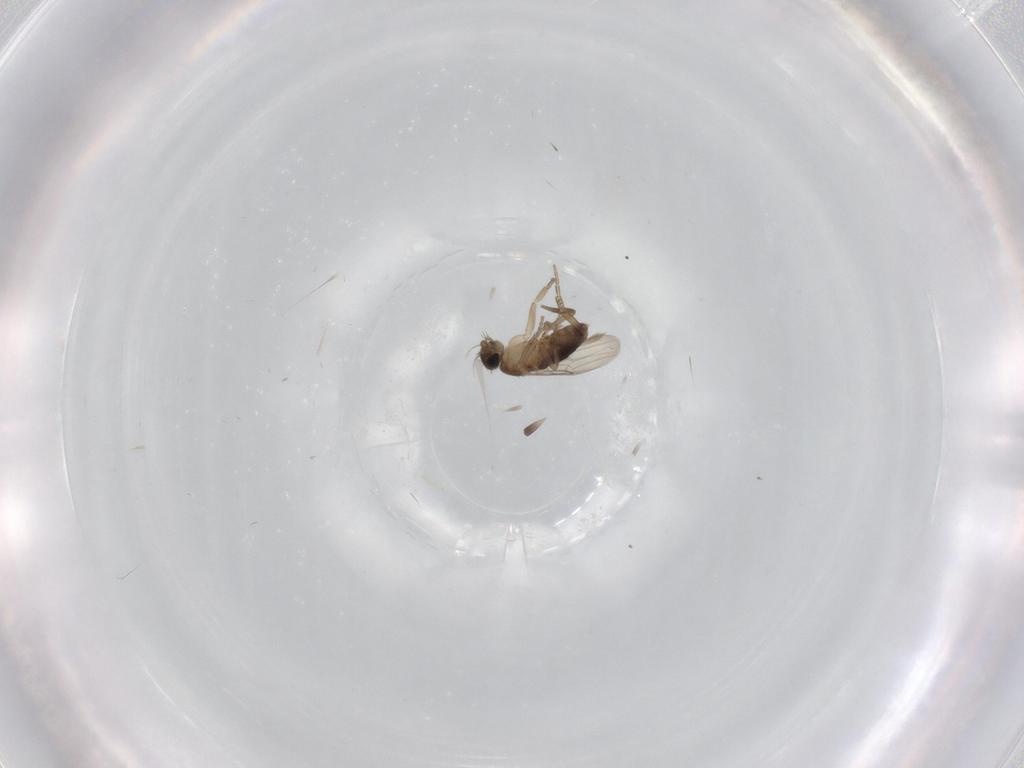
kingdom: Animalia
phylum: Arthropoda
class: Insecta
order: Diptera
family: Phoridae
